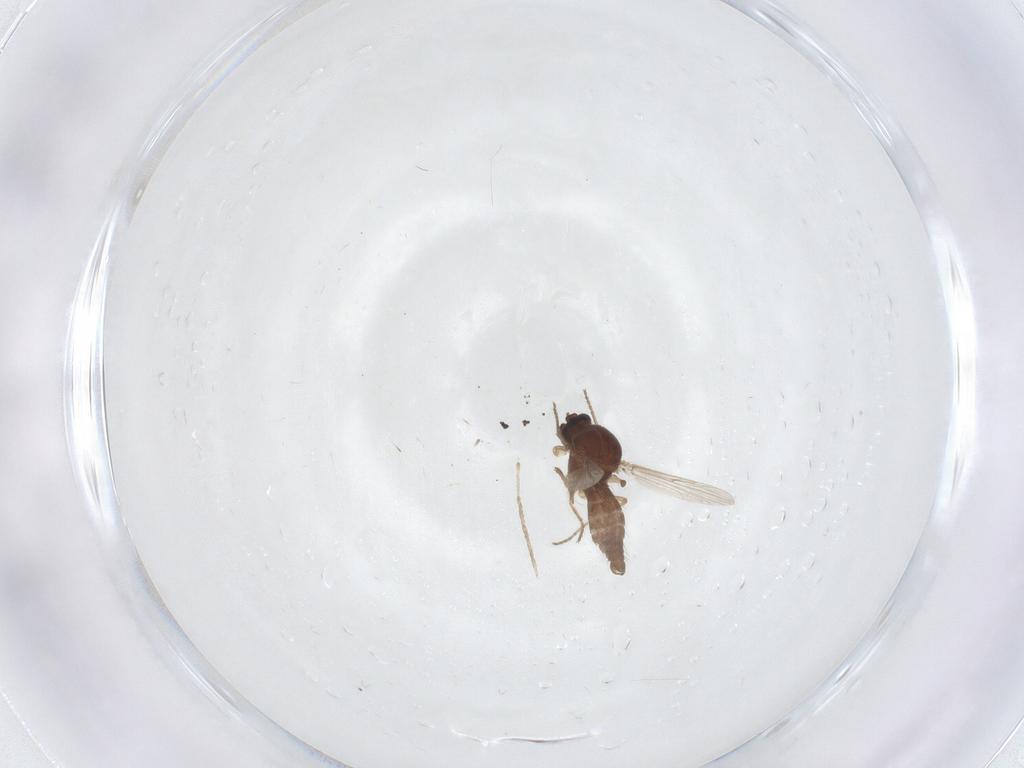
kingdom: Animalia
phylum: Arthropoda
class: Insecta
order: Diptera
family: Cecidomyiidae
